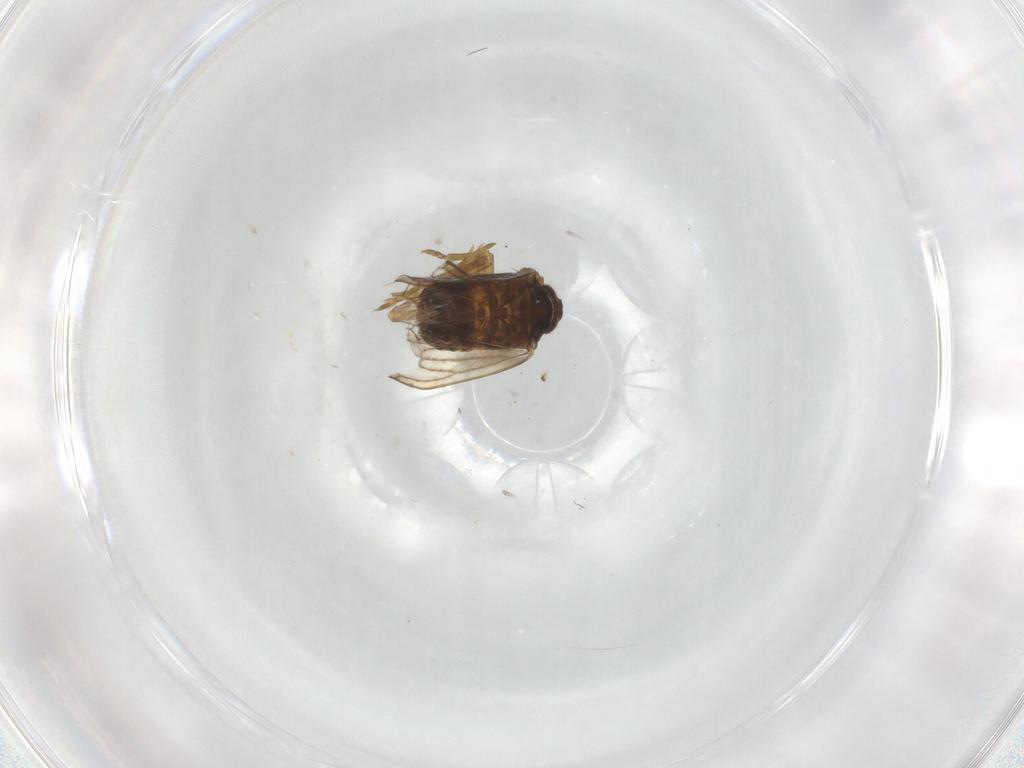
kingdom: Animalia
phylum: Arthropoda
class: Insecta
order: Hemiptera
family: Delphacidae
